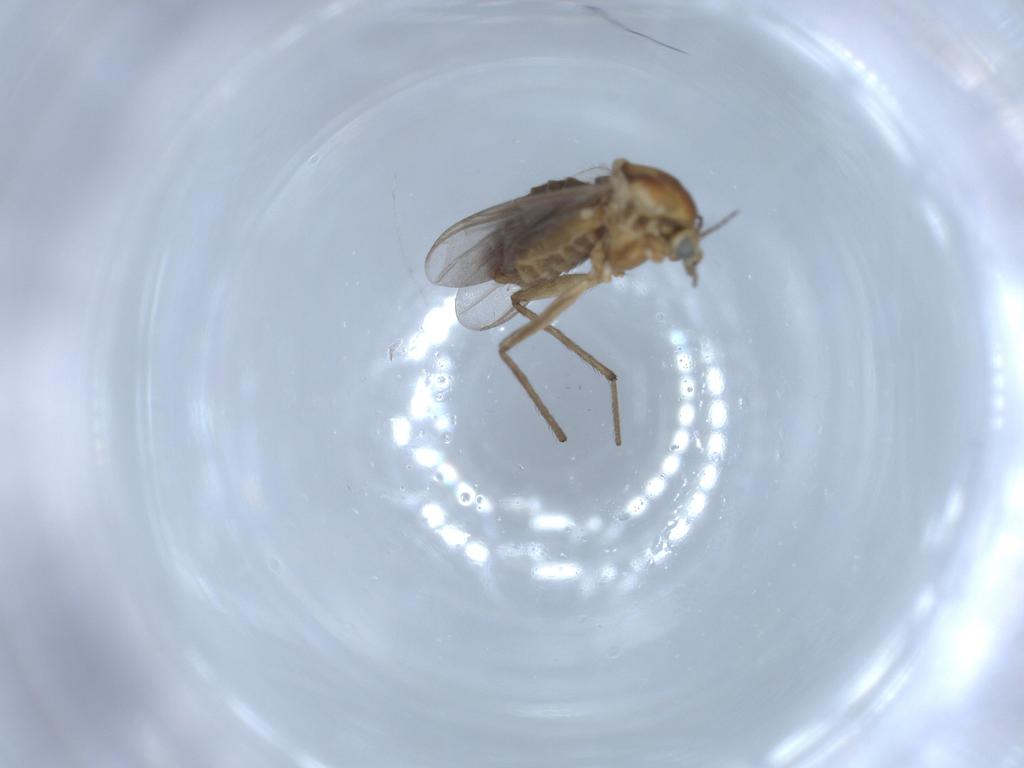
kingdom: Animalia
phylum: Arthropoda
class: Insecta
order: Diptera
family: Chironomidae
